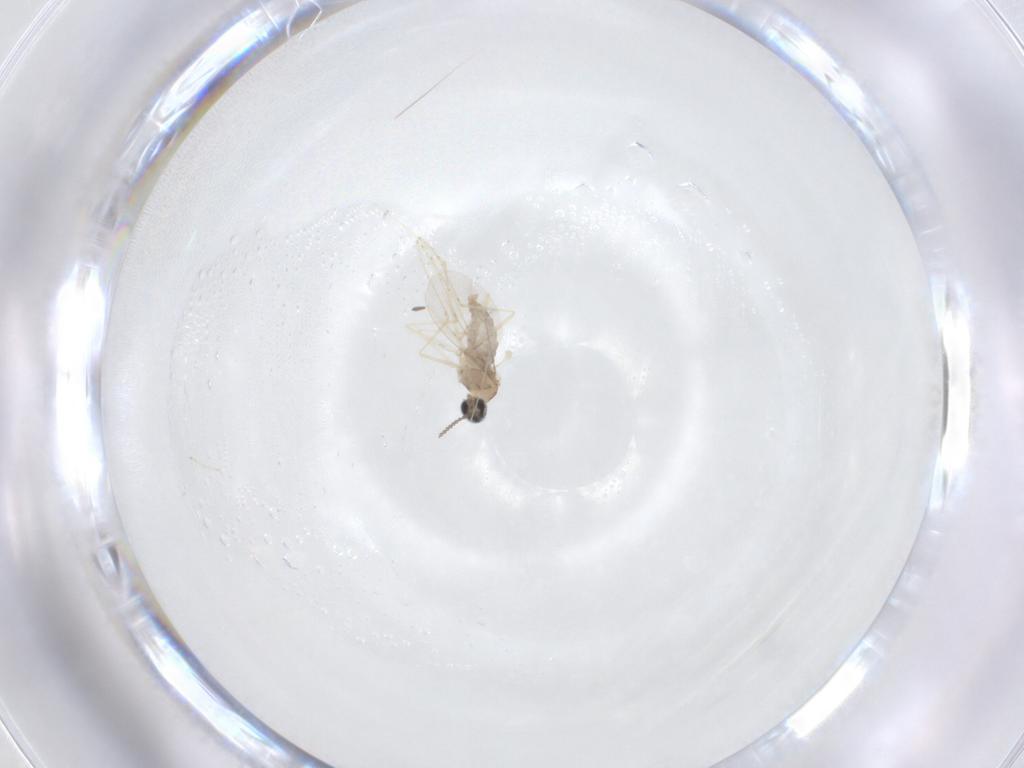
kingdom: Animalia
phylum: Arthropoda
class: Insecta
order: Diptera
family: Cecidomyiidae
